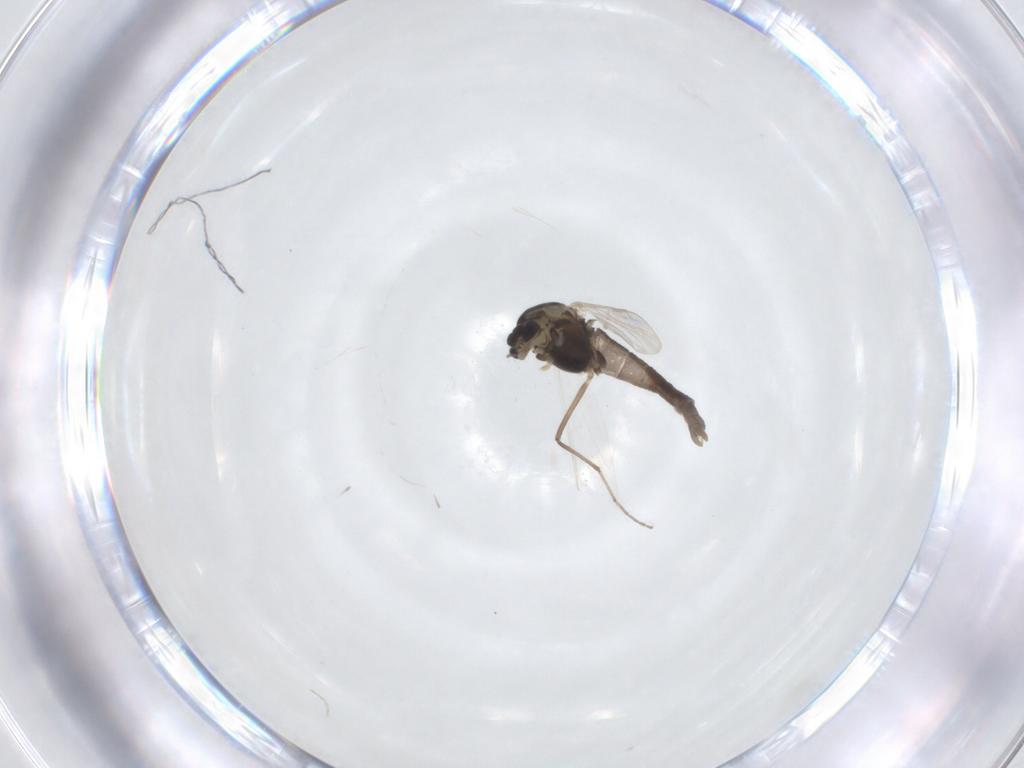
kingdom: Animalia
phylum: Arthropoda
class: Insecta
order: Diptera
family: Chironomidae
